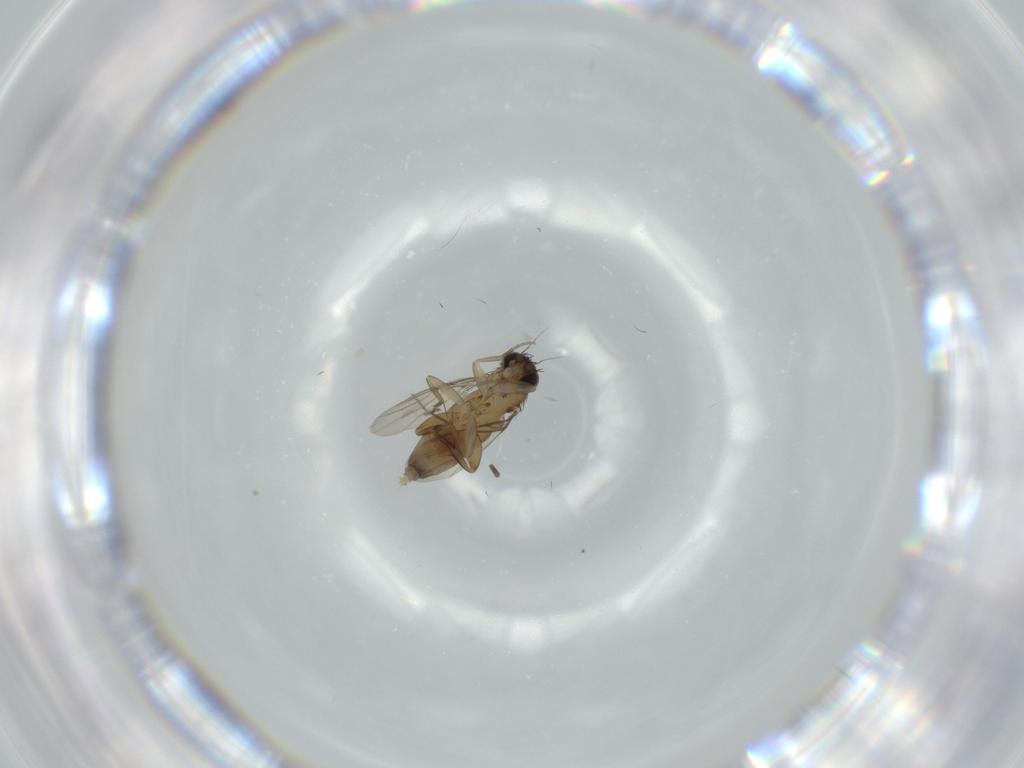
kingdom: Animalia
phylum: Arthropoda
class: Insecta
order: Diptera
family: Phoridae
